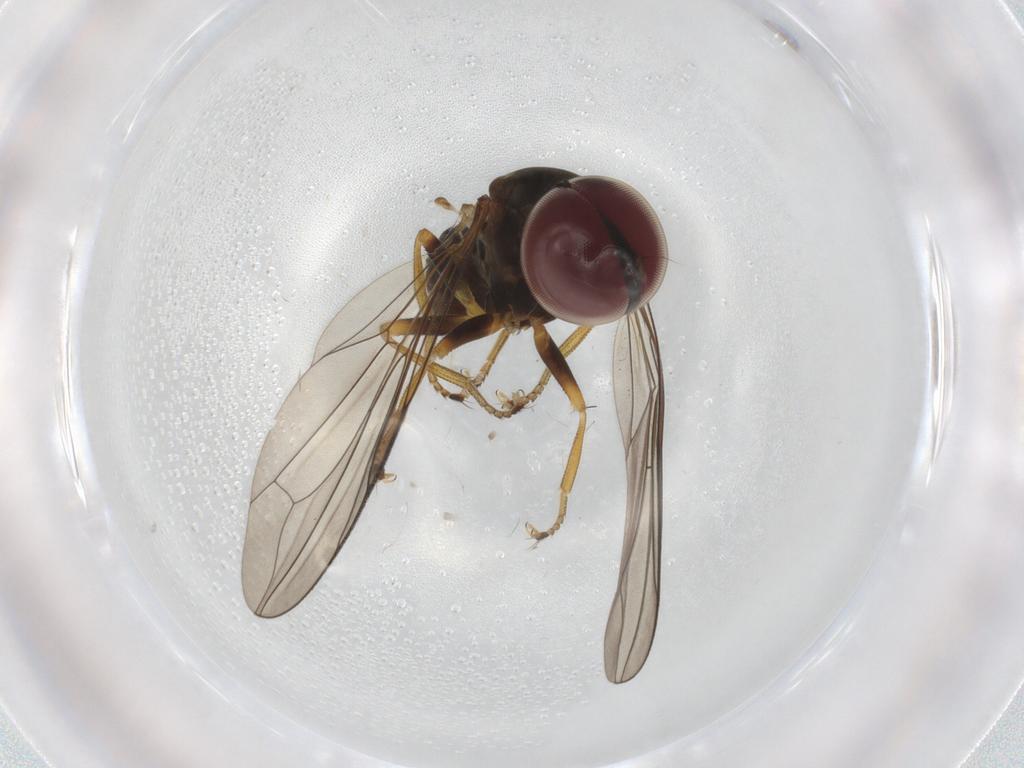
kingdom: Animalia
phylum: Arthropoda
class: Insecta
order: Diptera
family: Pipunculidae
